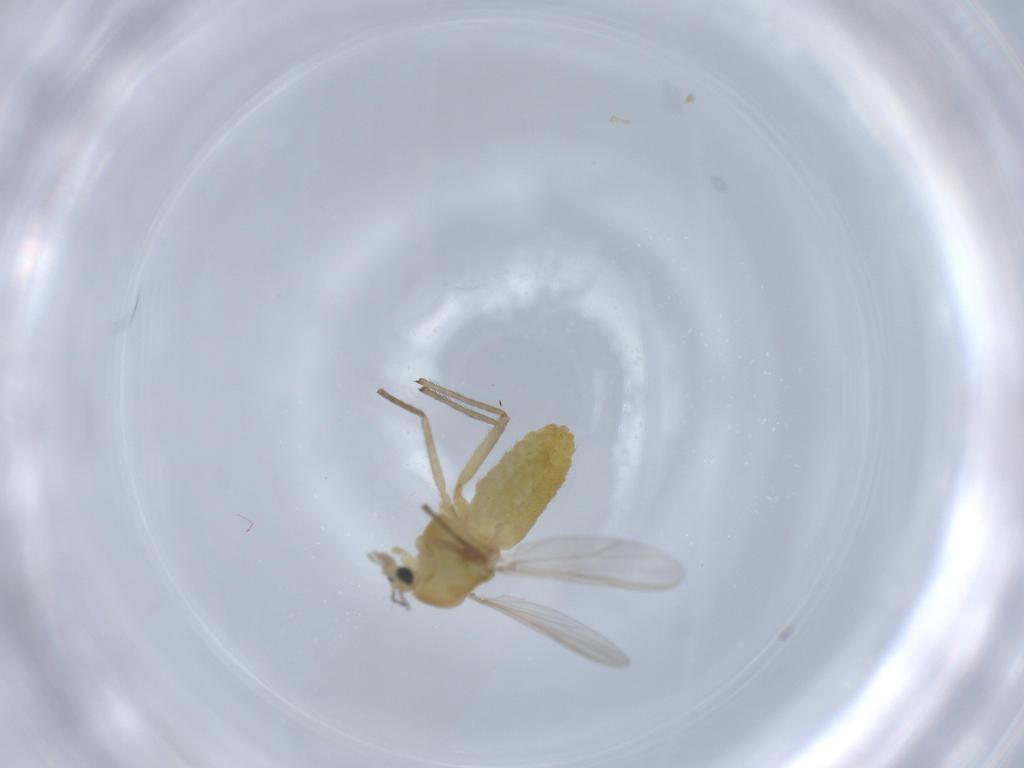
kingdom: Animalia
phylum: Arthropoda
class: Insecta
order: Diptera
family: Chironomidae
